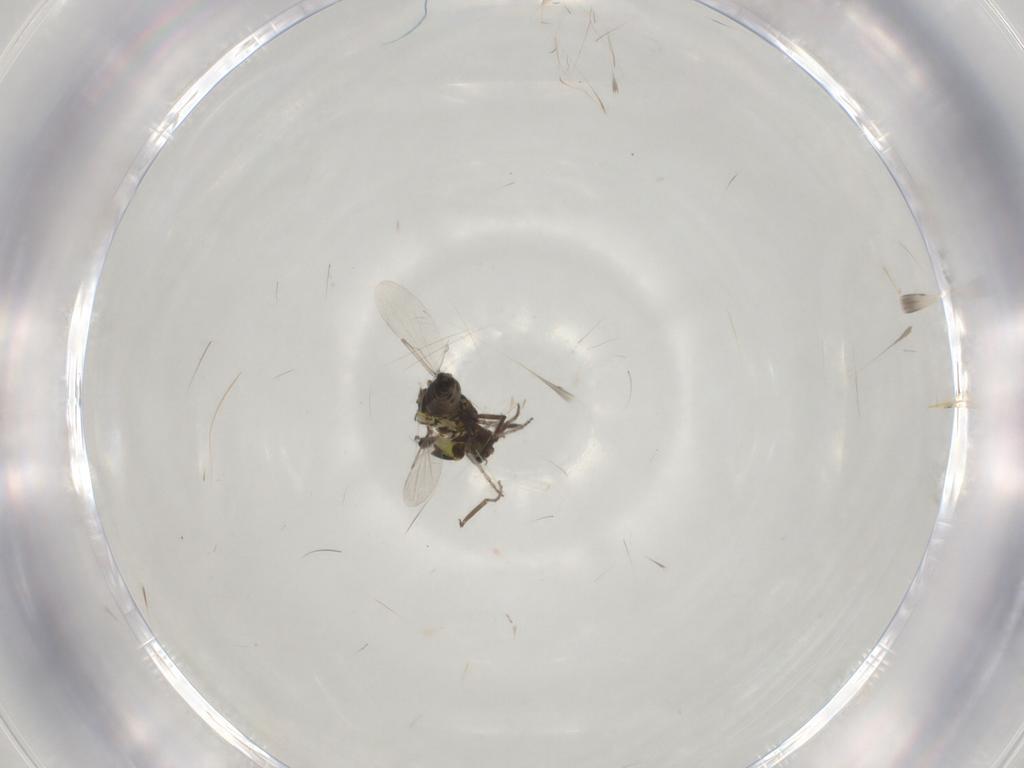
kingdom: Animalia
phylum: Arthropoda
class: Insecta
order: Diptera
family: Ceratopogonidae
